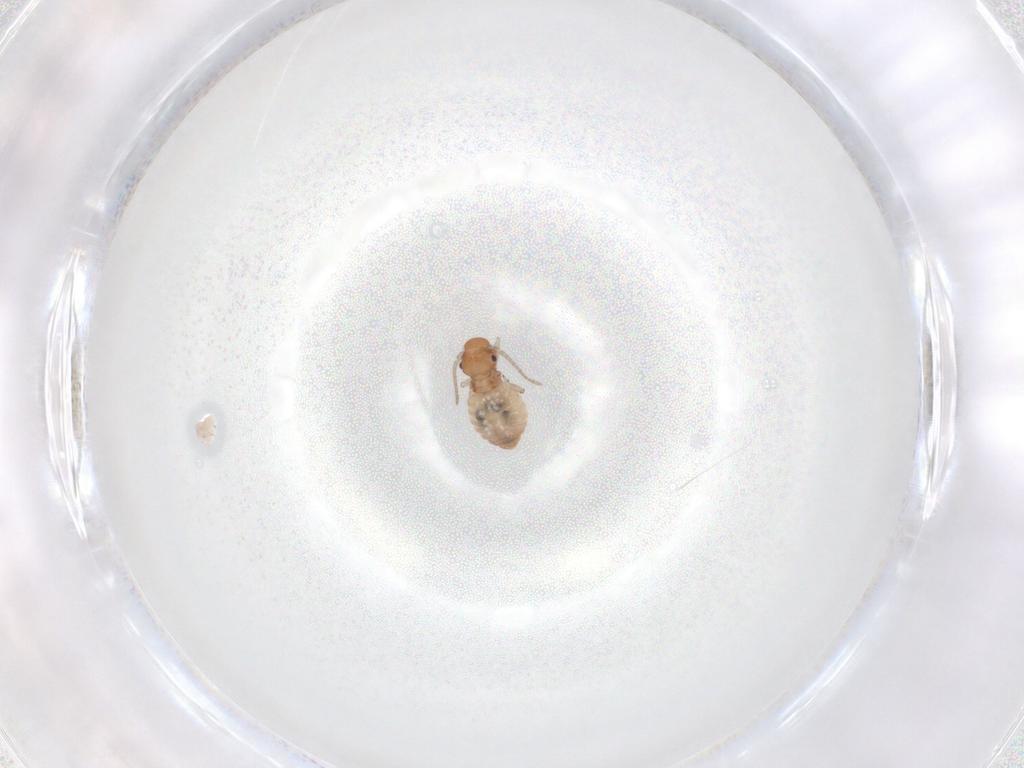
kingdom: Animalia
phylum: Arthropoda
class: Insecta
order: Psocodea
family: Caeciliusidae
